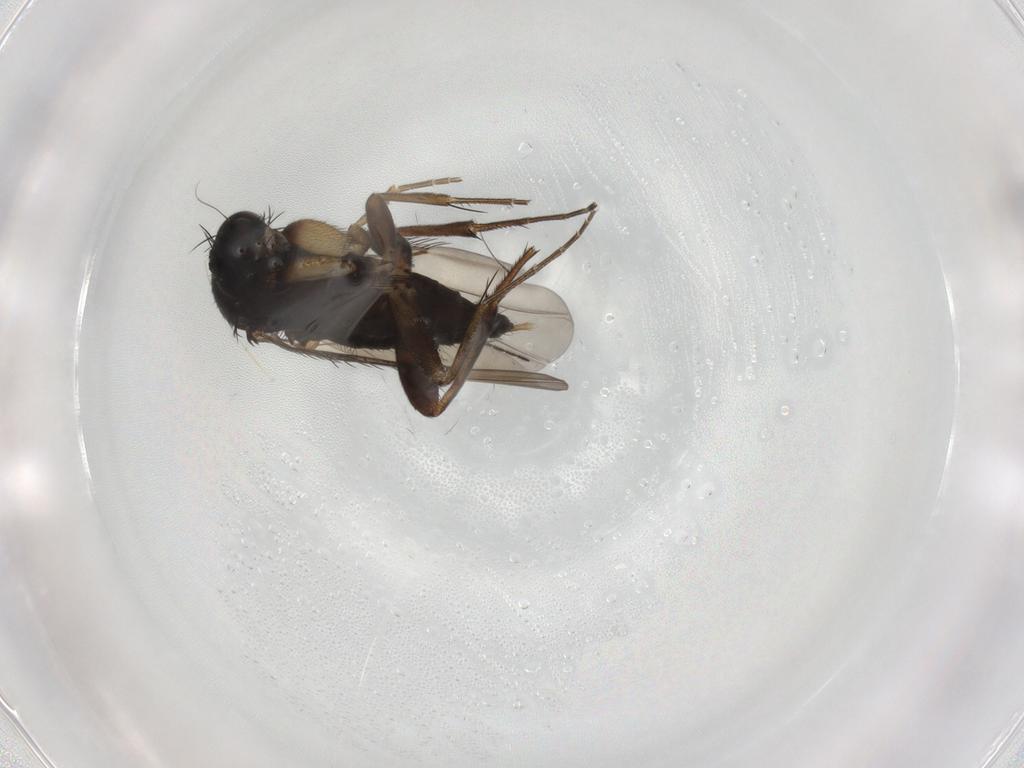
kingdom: Animalia
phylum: Arthropoda
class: Insecta
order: Diptera
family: Phoridae
